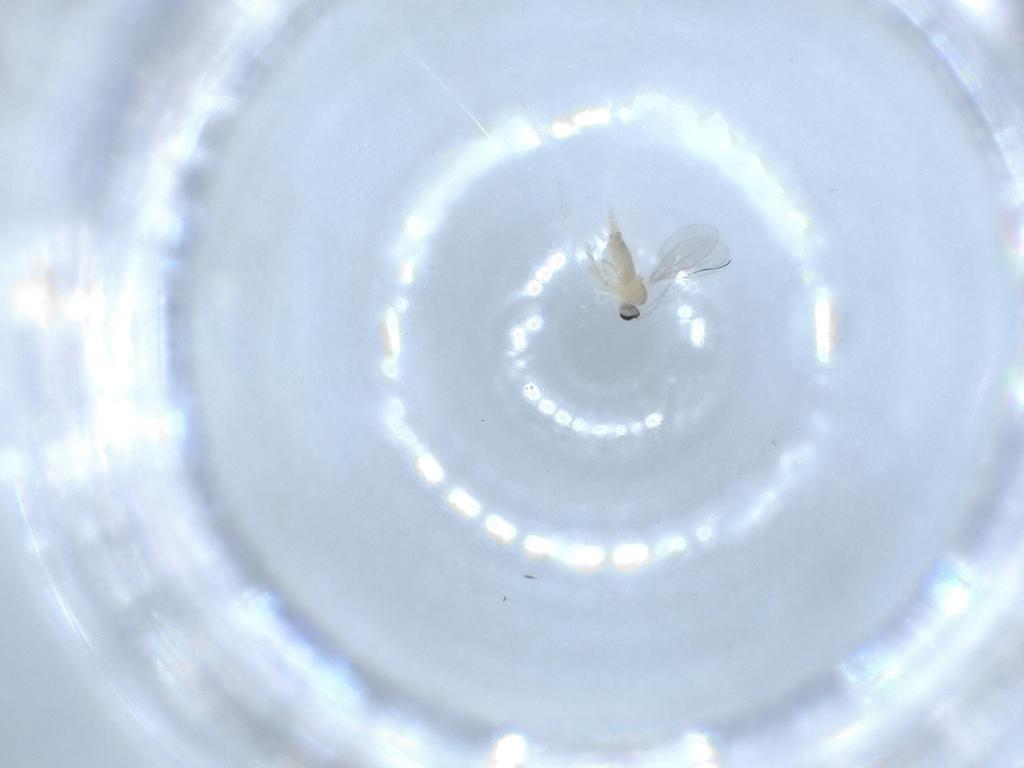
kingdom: Animalia
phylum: Arthropoda
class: Insecta
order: Diptera
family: Cecidomyiidae
